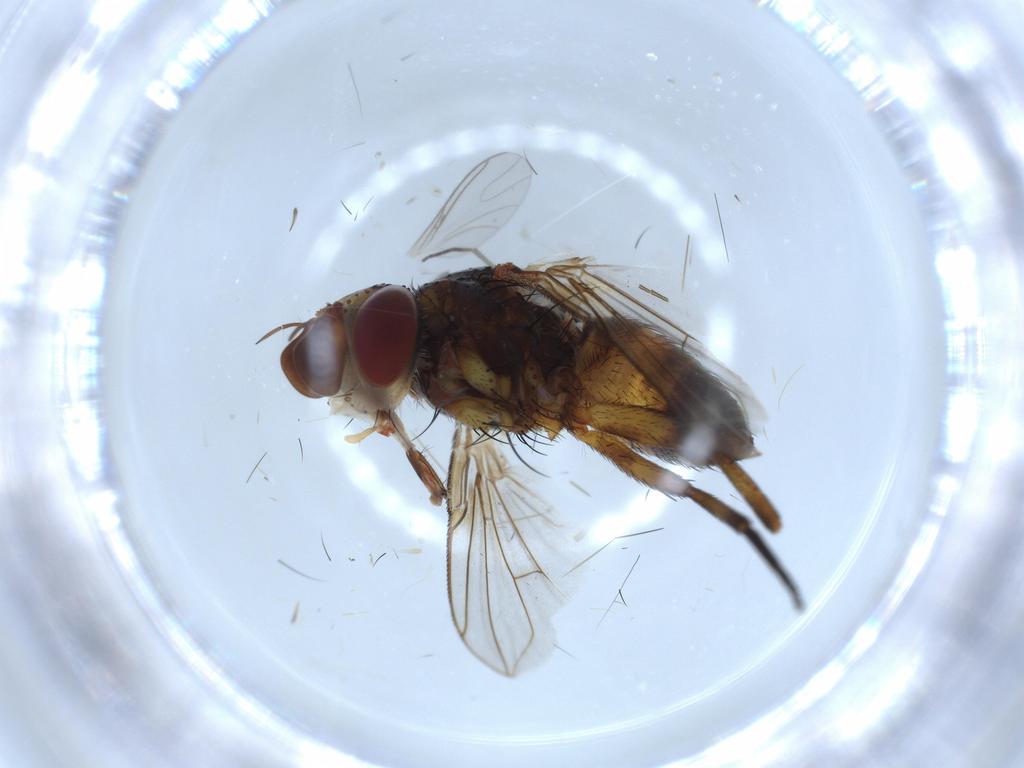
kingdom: Animalia
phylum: Arthropoda
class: Insecta
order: Diptera
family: Tachinidae
